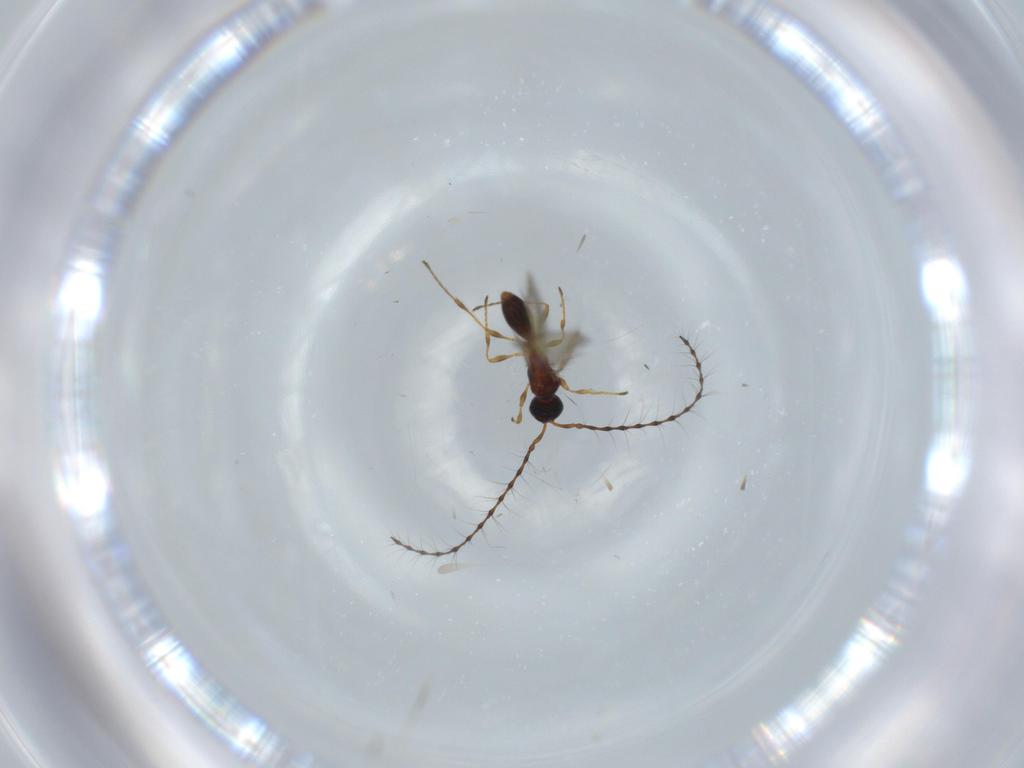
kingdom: Animalia
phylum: Arthropoda
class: Insecta
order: Hymenoptera
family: Diapriidae
